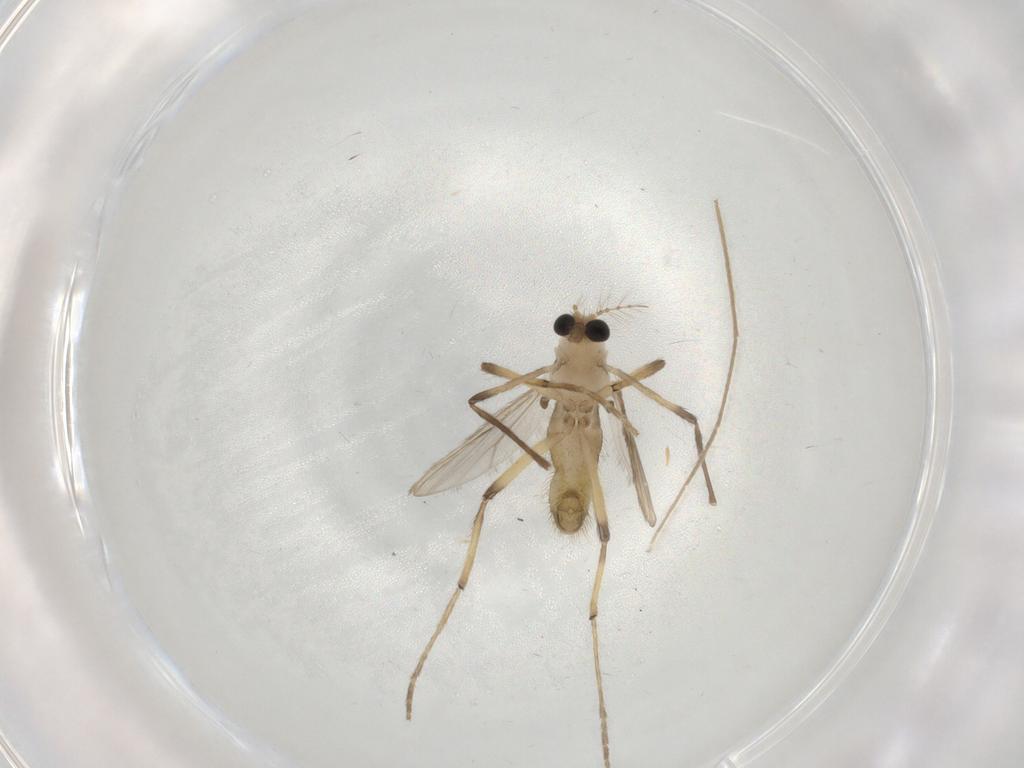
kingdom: Animalia
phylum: Arthropoda
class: Insecta
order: Diptera
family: Chironomidae
